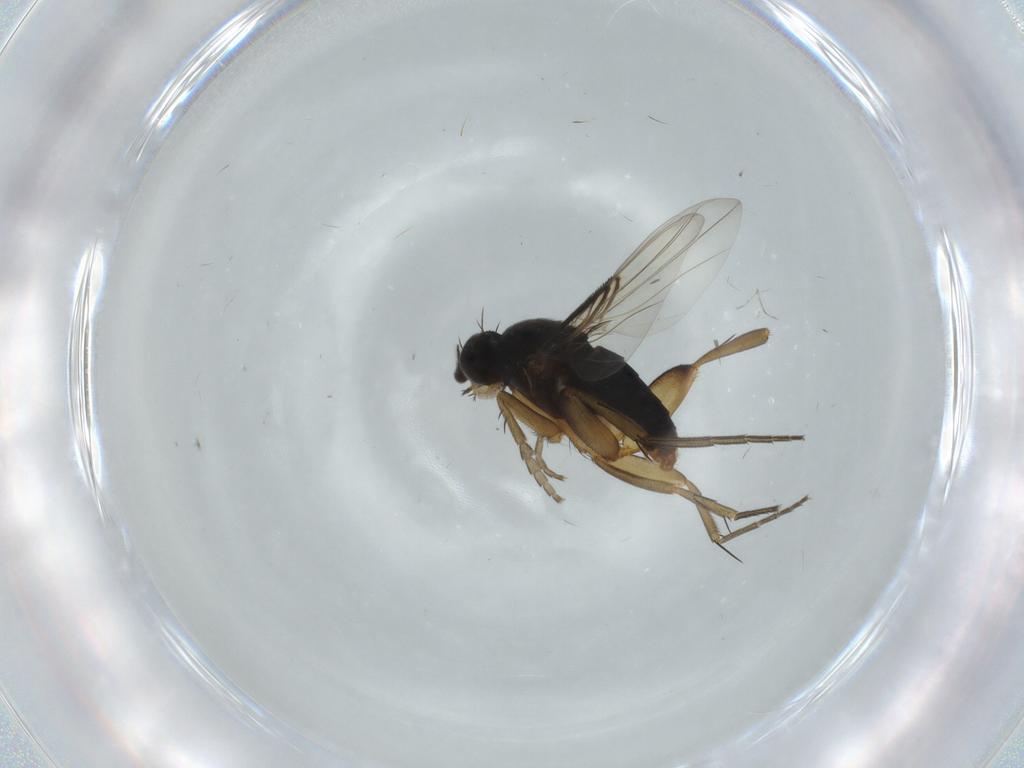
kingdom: Animalia
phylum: Arthropoda
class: Insecta
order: Diptera
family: Phoridae
